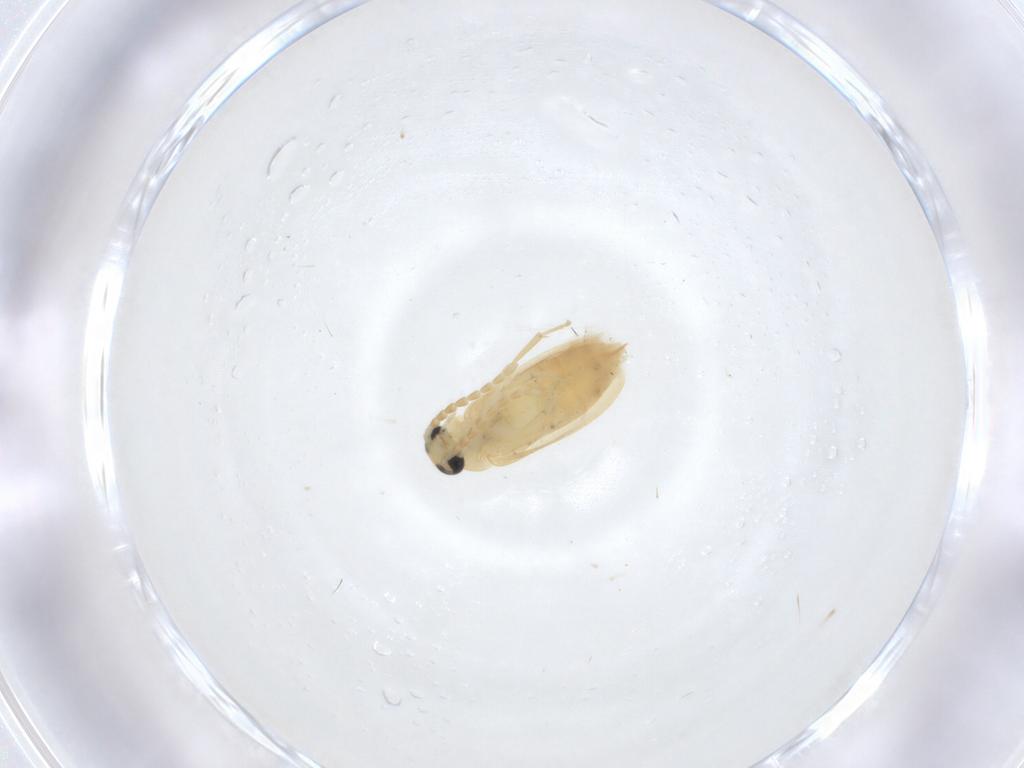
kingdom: Animalia
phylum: Arthropoda
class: Insecta
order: Coleoptera
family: Scraptiidae
